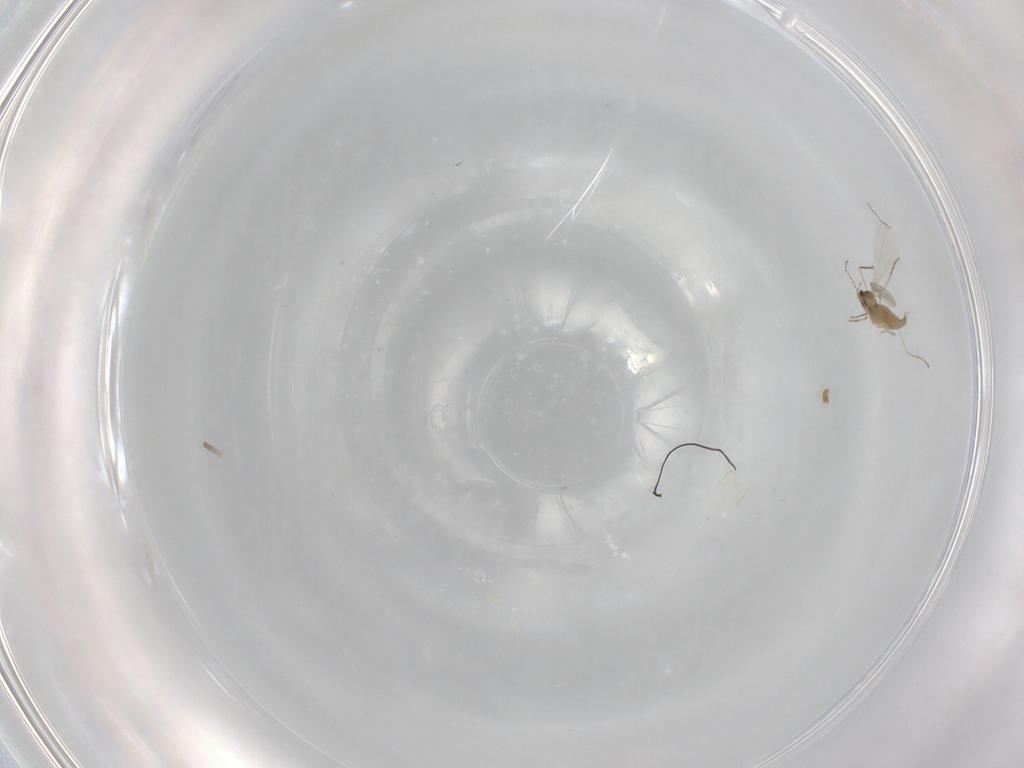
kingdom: Animalia
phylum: Arthropoda
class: Insecta
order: Diptera
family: Cecidomyiidae
